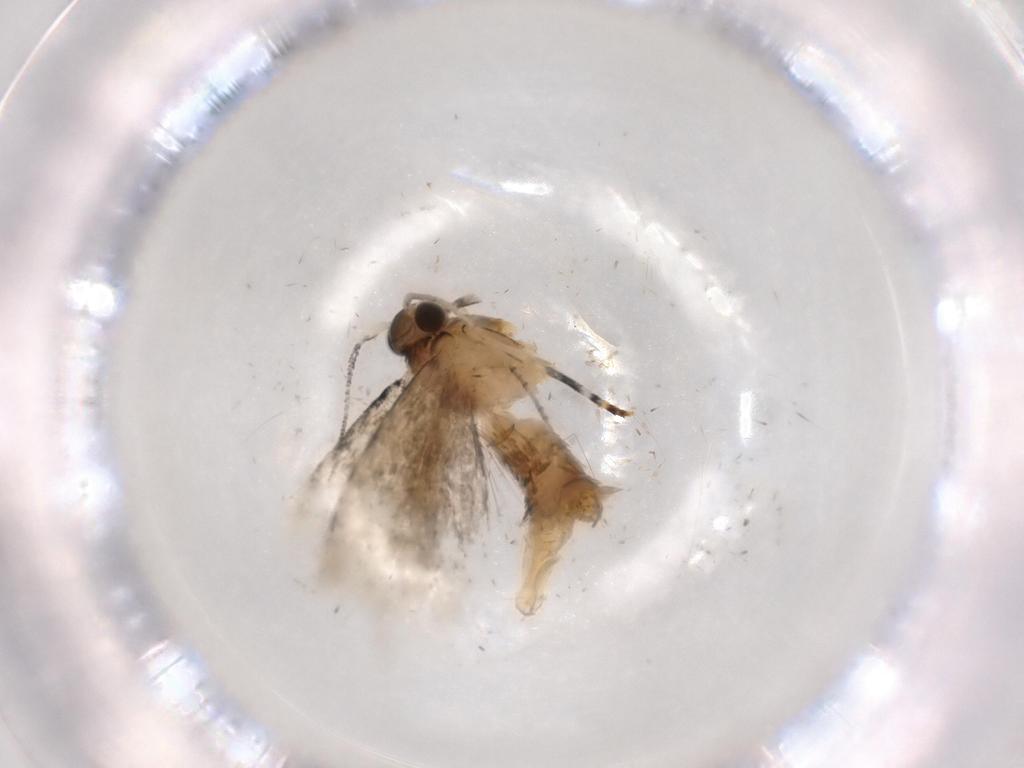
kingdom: Animalia
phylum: Arthropoda
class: Insecta
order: Lepidoptera
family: Tineidae
